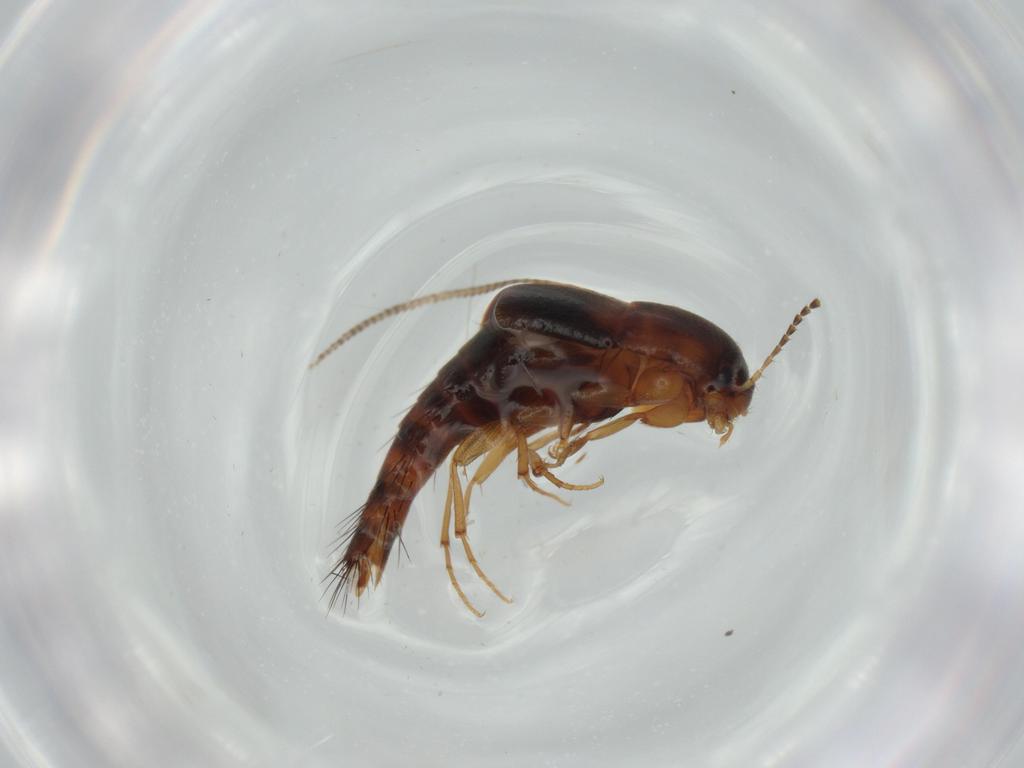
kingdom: Animalia
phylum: Arthropoda
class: Insecta
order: Coleoptera
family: Staphylinidae
